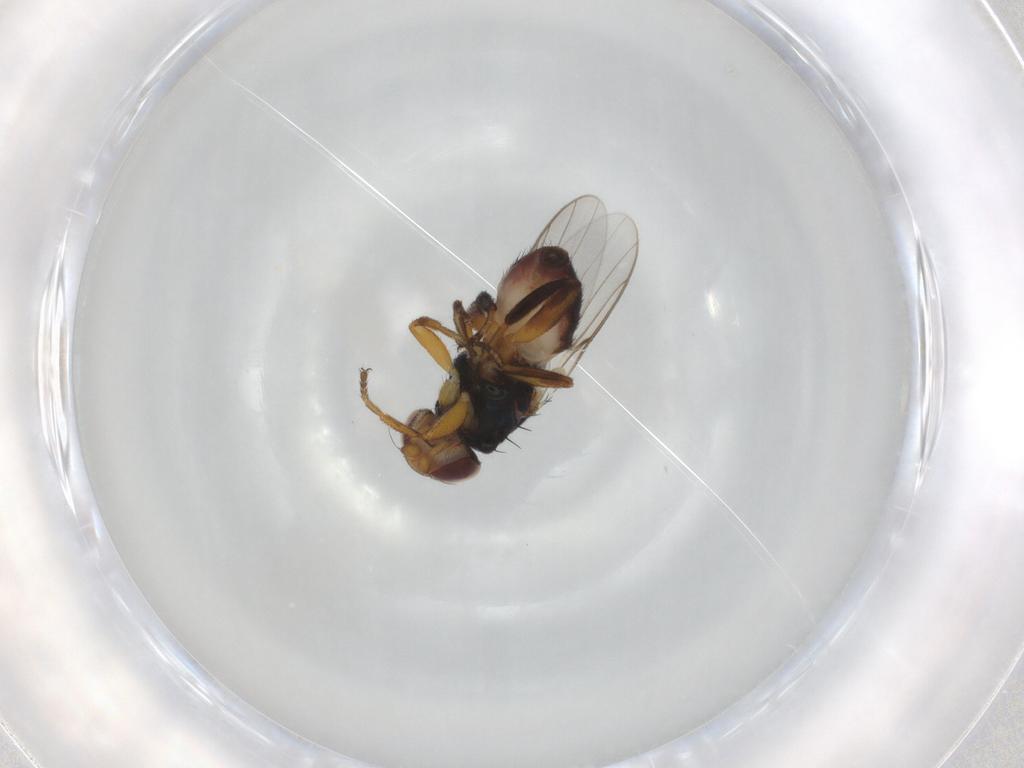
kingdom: Animalia
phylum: Arthropoda
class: Insecta
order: Diptera
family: Chloropidae
